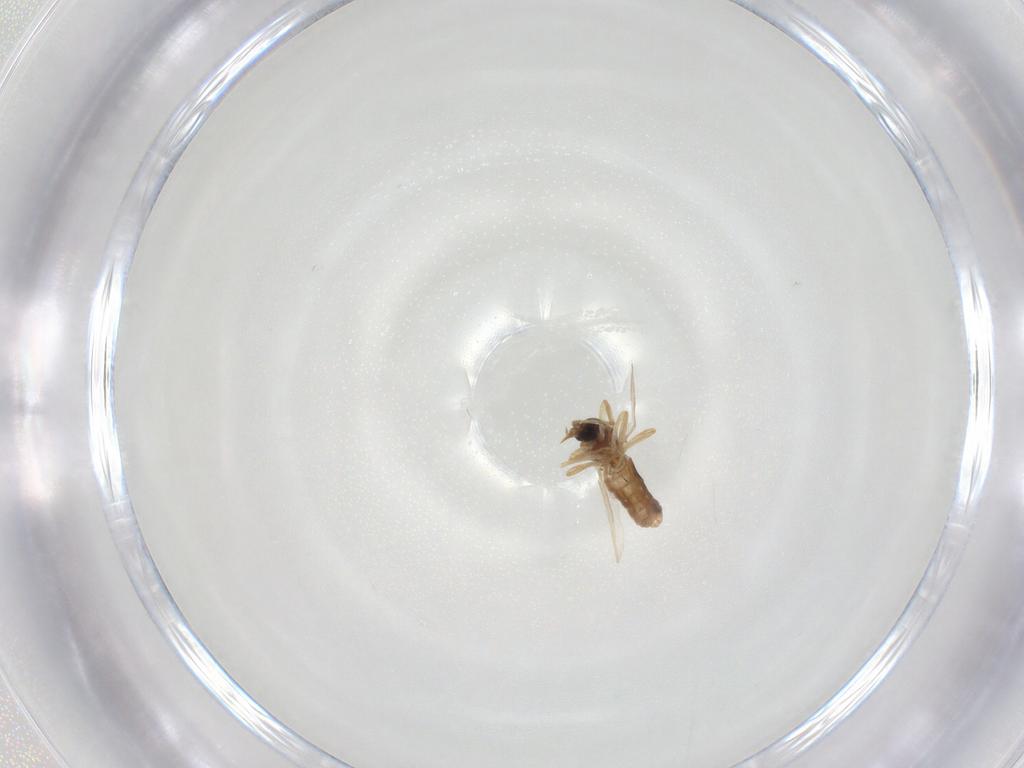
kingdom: Animalia
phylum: Arthropoda
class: Insecta
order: Diptera
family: Ceratopogonidae
